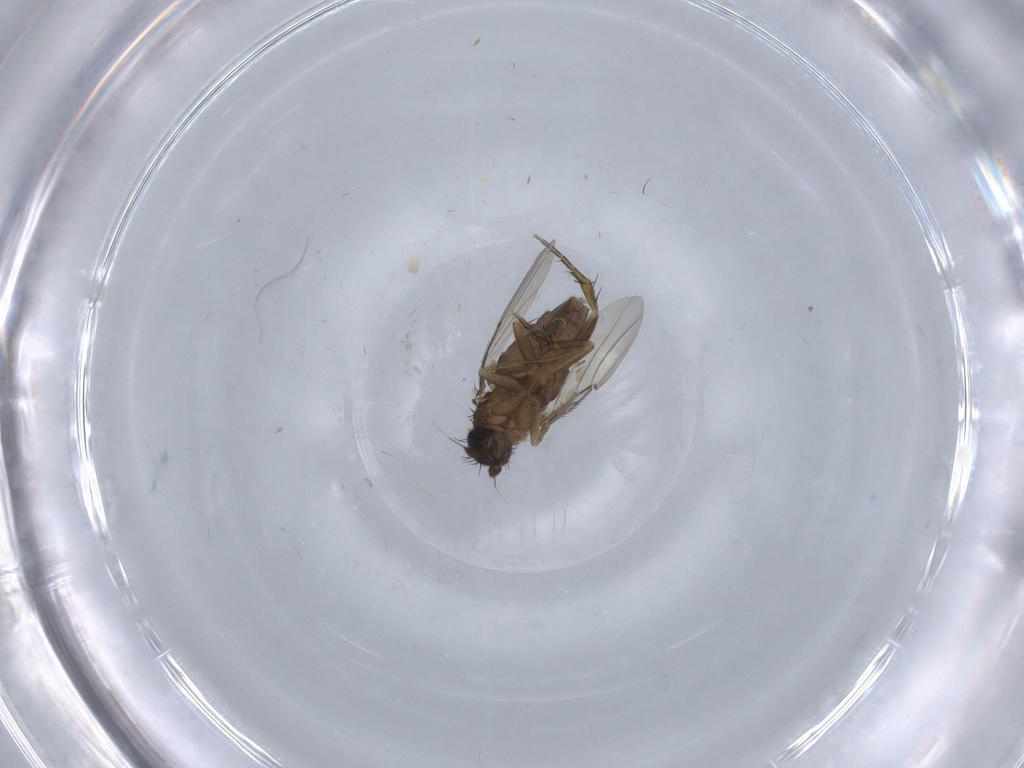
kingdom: Animalia
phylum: Arthropoda
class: Insecta
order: Diptera
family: Phoridae
